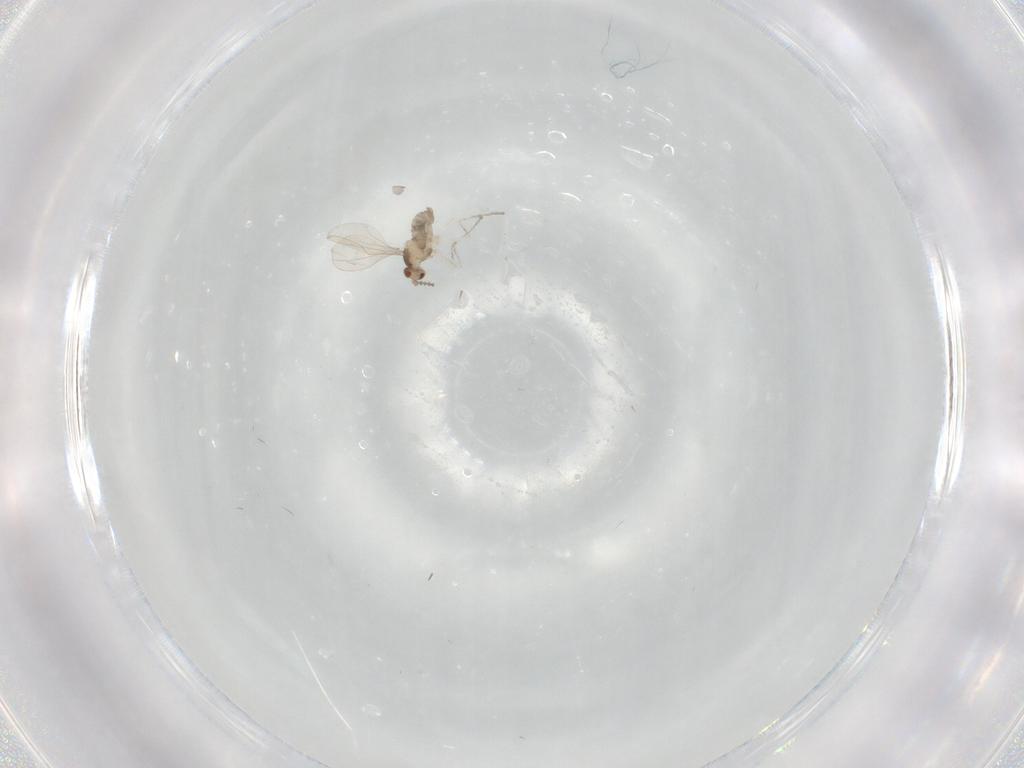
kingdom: Animalia
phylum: Arthropoda
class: Insecta
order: Diptera
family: Cecidomyiidae
